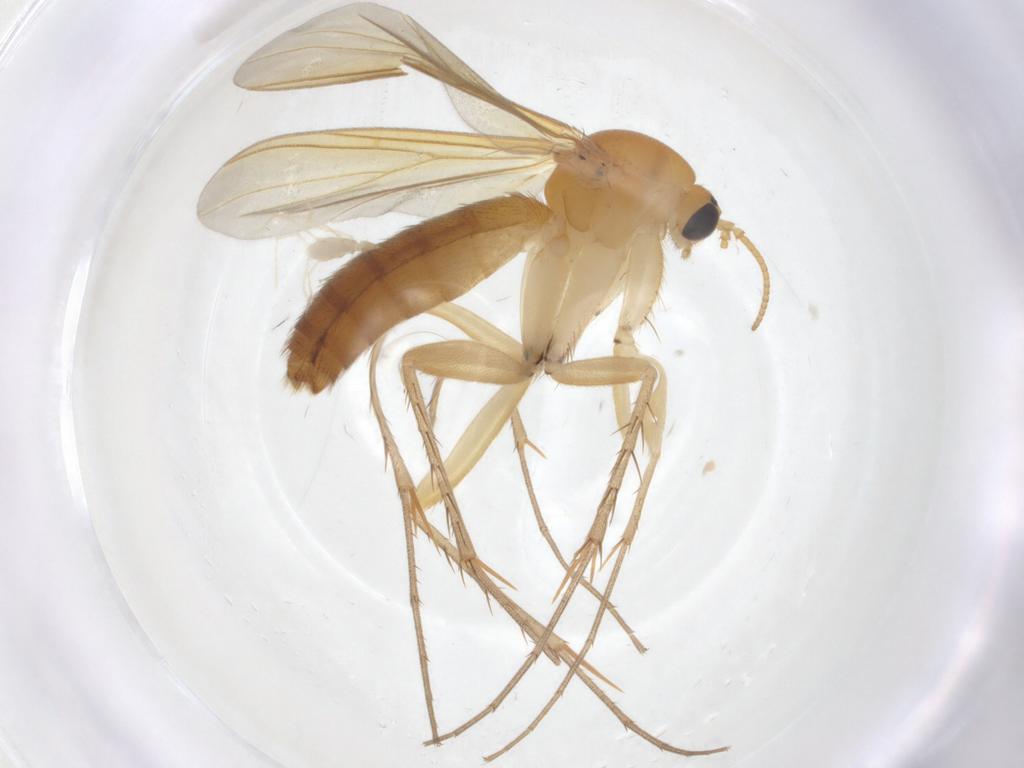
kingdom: Animalia
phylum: Arthropoda
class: Insecta
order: Diptera
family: Mycetophilidae
